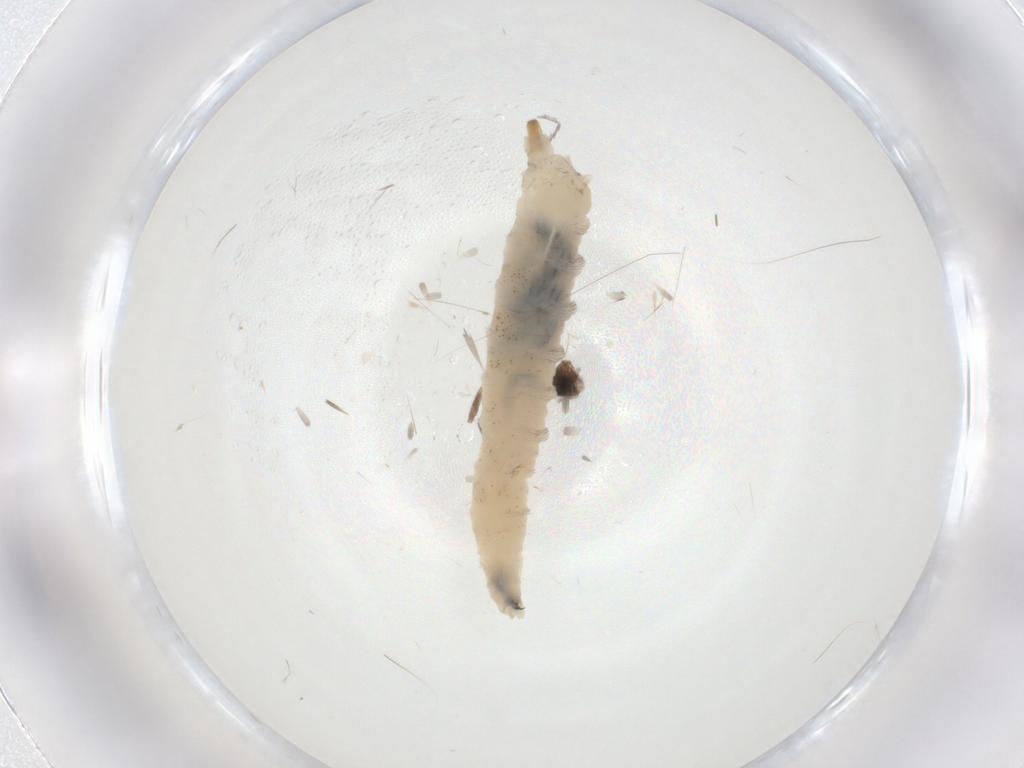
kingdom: Animalia
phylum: Arthropoda
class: Insecta
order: Diptera
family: Drosophilidae
